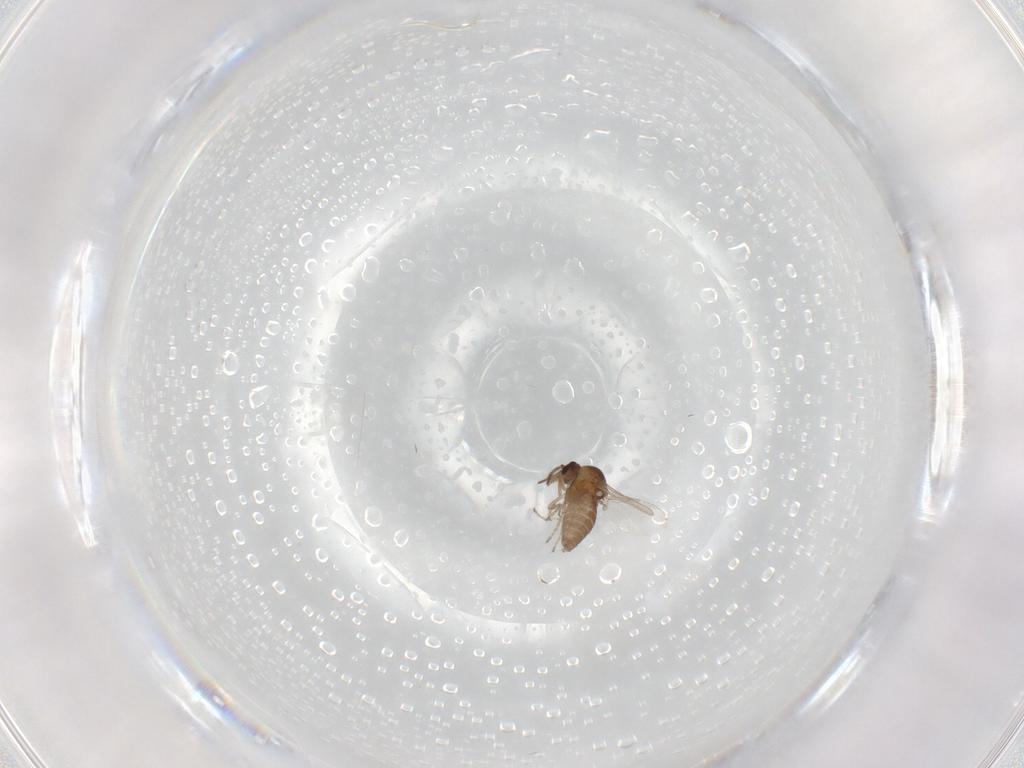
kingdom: Animalia
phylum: Arthropoda
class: Insecta
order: Diptera
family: Ceratopogonidae
